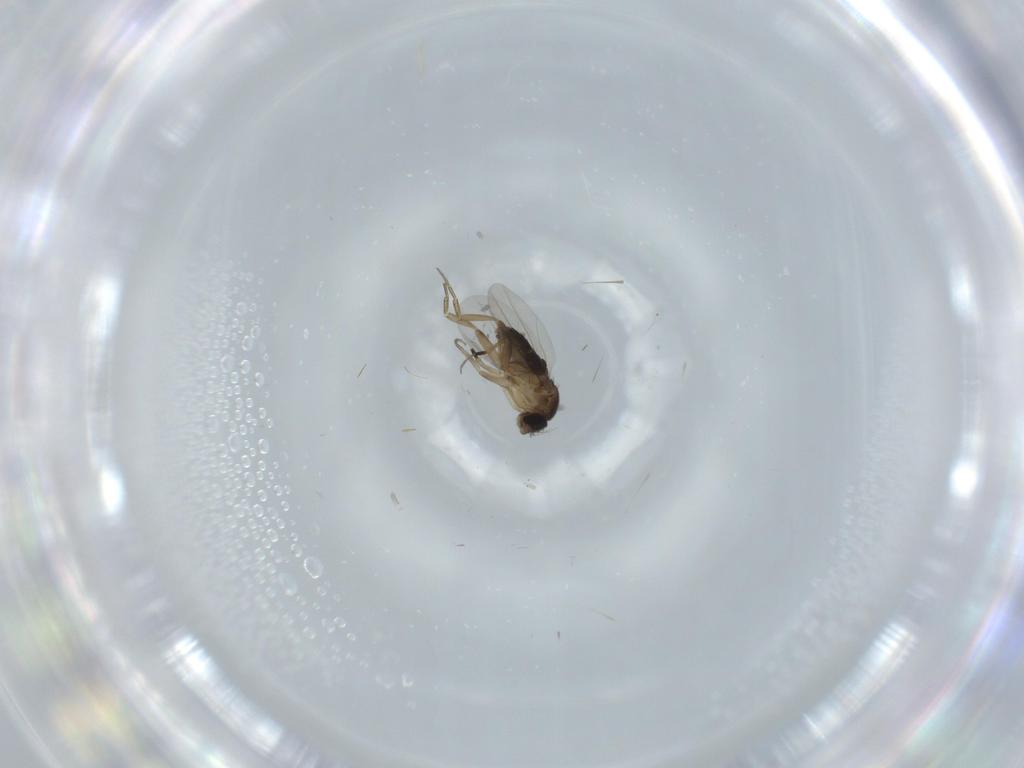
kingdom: Animalia
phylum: Arthropoda
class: Insecta
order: Diptera
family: Phoridae
